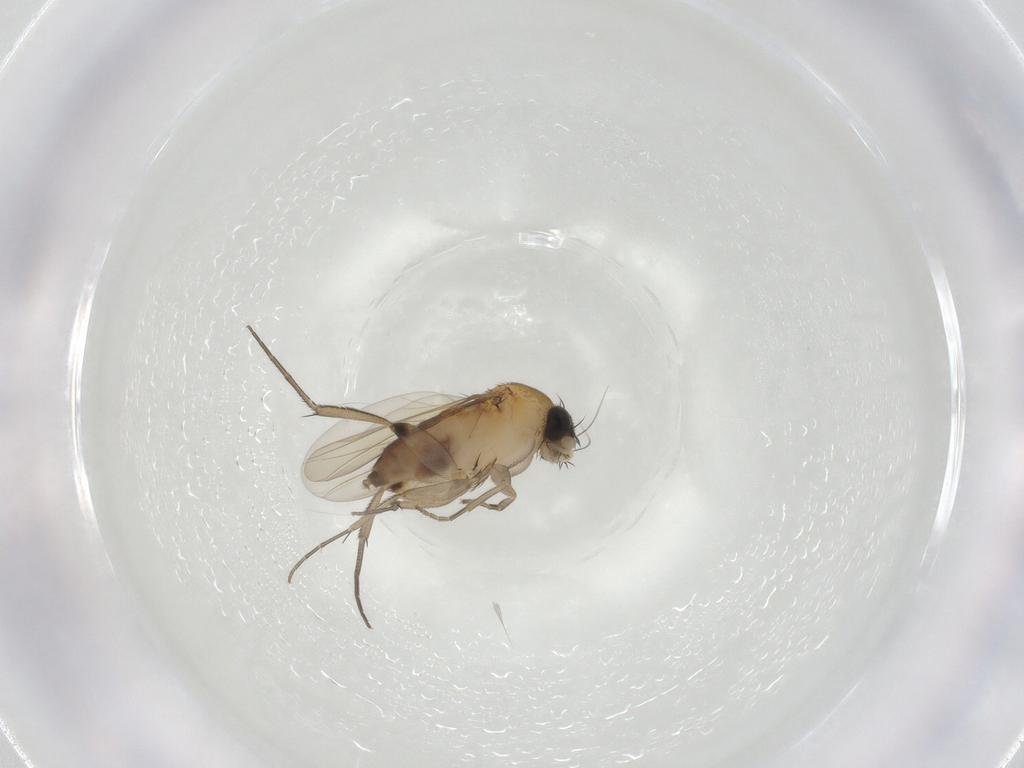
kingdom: Animalia
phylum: Arthropoda
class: Insecta
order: Diptera
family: Phoridae
